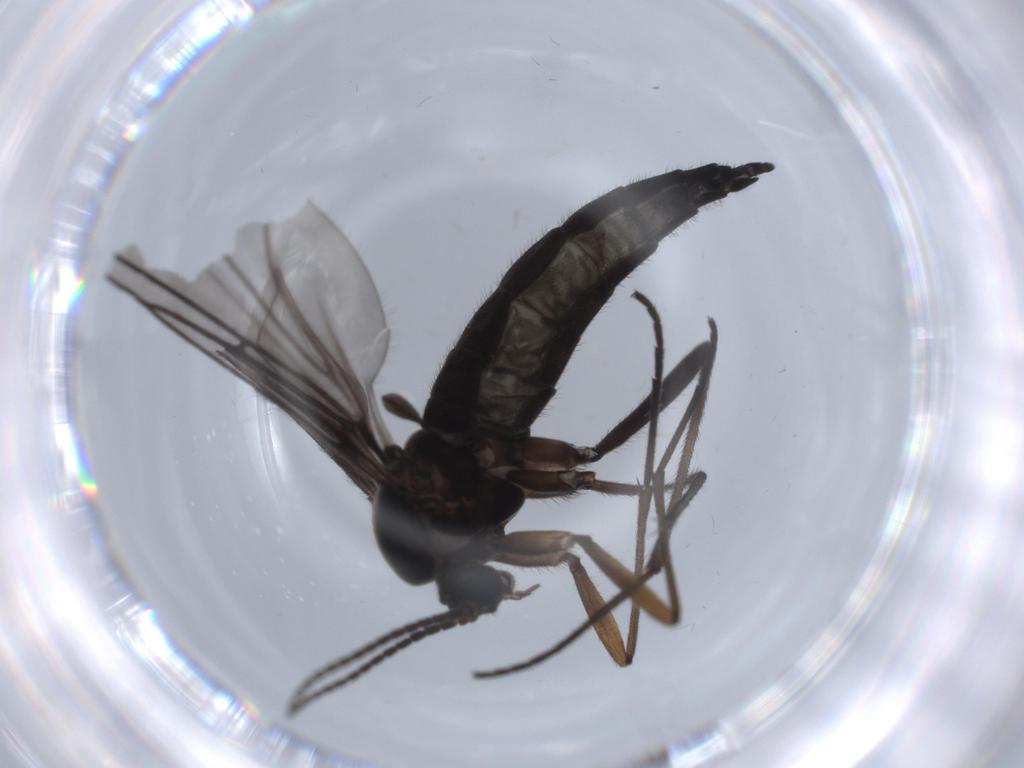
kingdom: Animalia
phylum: Arthropoda
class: Insecta
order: Diptera
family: Sciaridae
